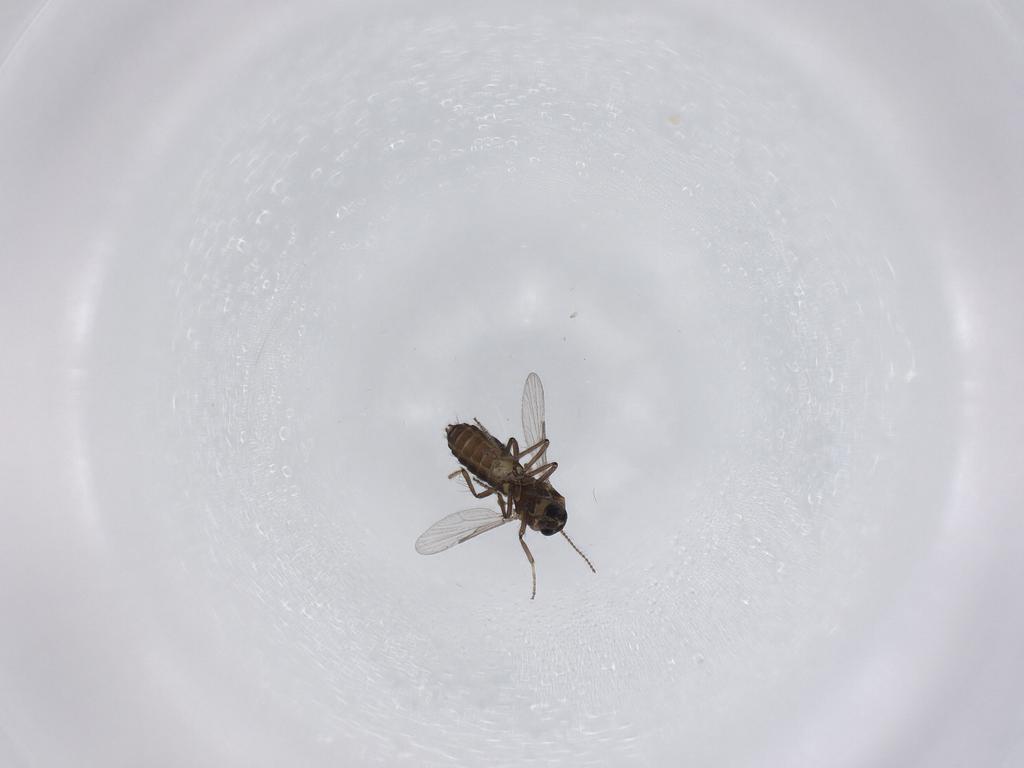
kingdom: Animalia
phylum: Arthropoda
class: Insecta
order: Diptera
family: Ceratopogonidae
